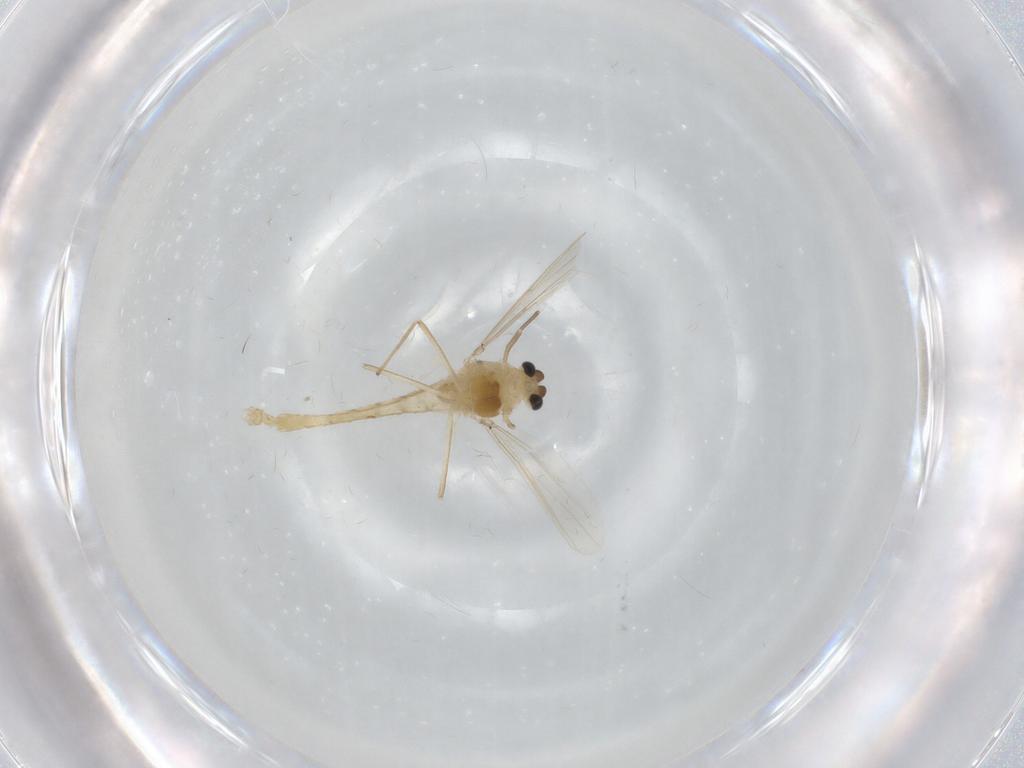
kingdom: Animalia
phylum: Arthropoda
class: Insecta
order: Diptera
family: Chironomidae
